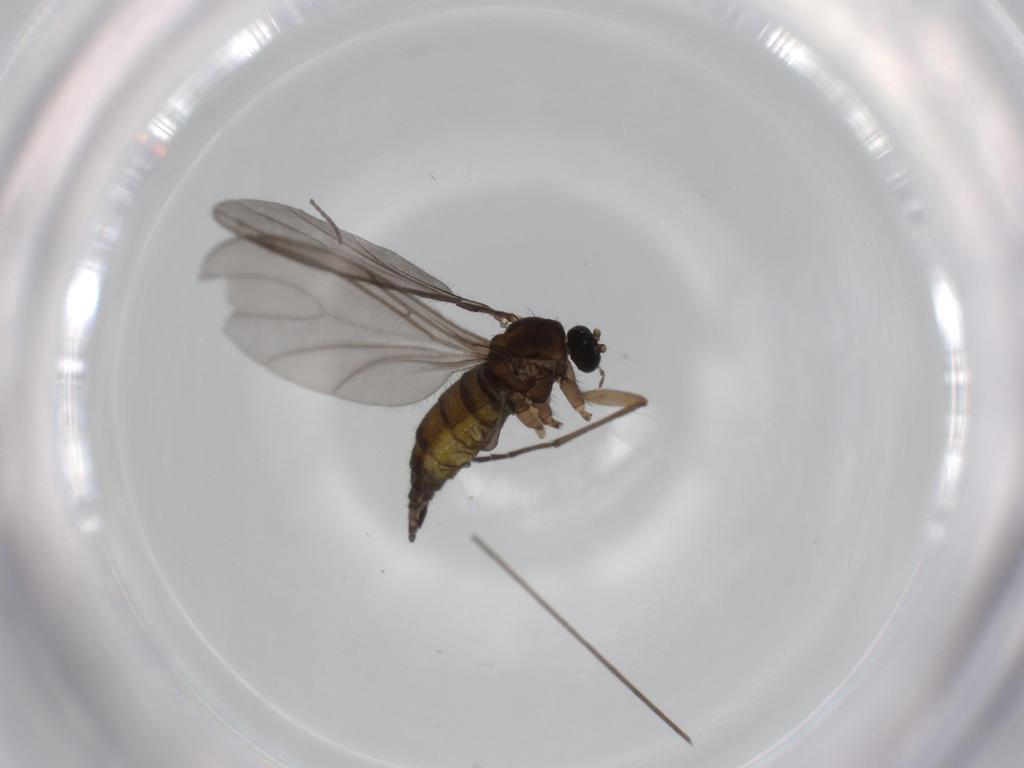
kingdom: Animalia
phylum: Arthropoda
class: Insecta
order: Diptera
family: Sciaridae
